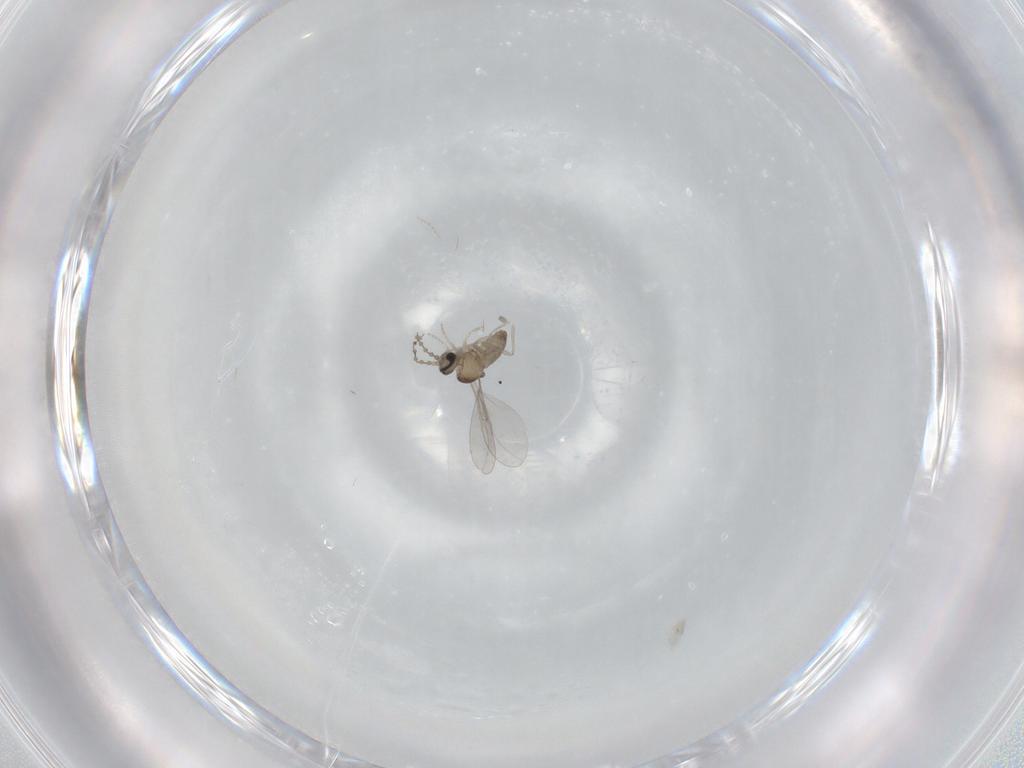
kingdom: Animalia
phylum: Arthropoda
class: Insecta
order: Diptera
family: Cecidomyiidae
